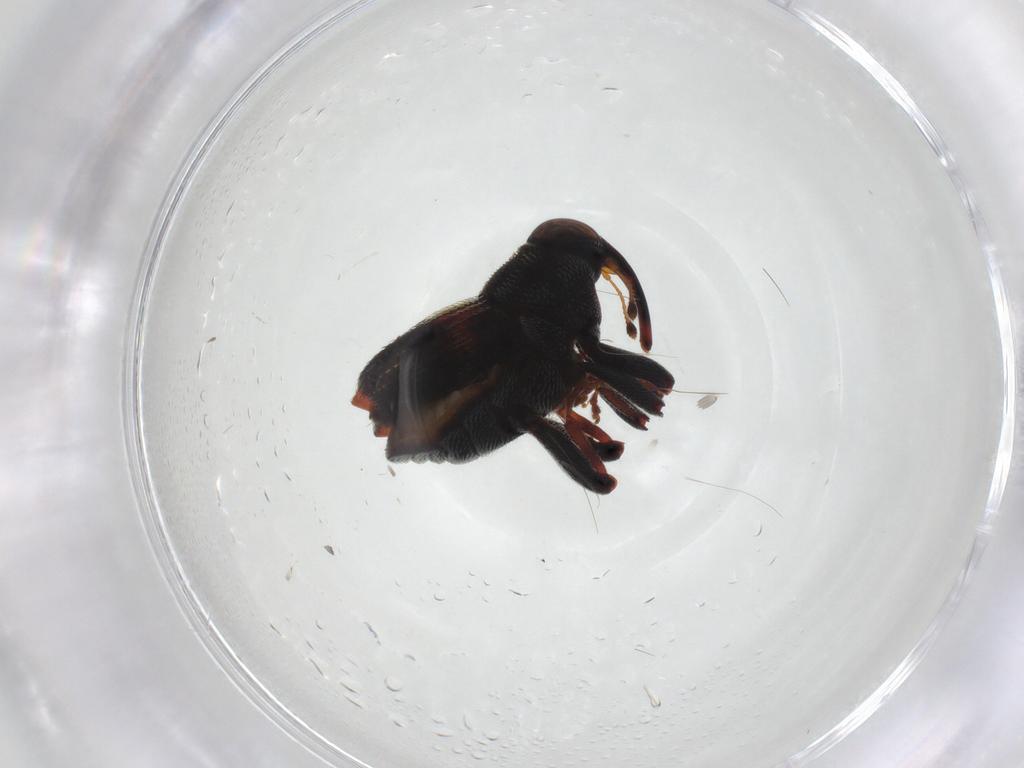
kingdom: Animalia
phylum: Arthropoda
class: Insecta
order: Coleoptera
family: Curculionidae
